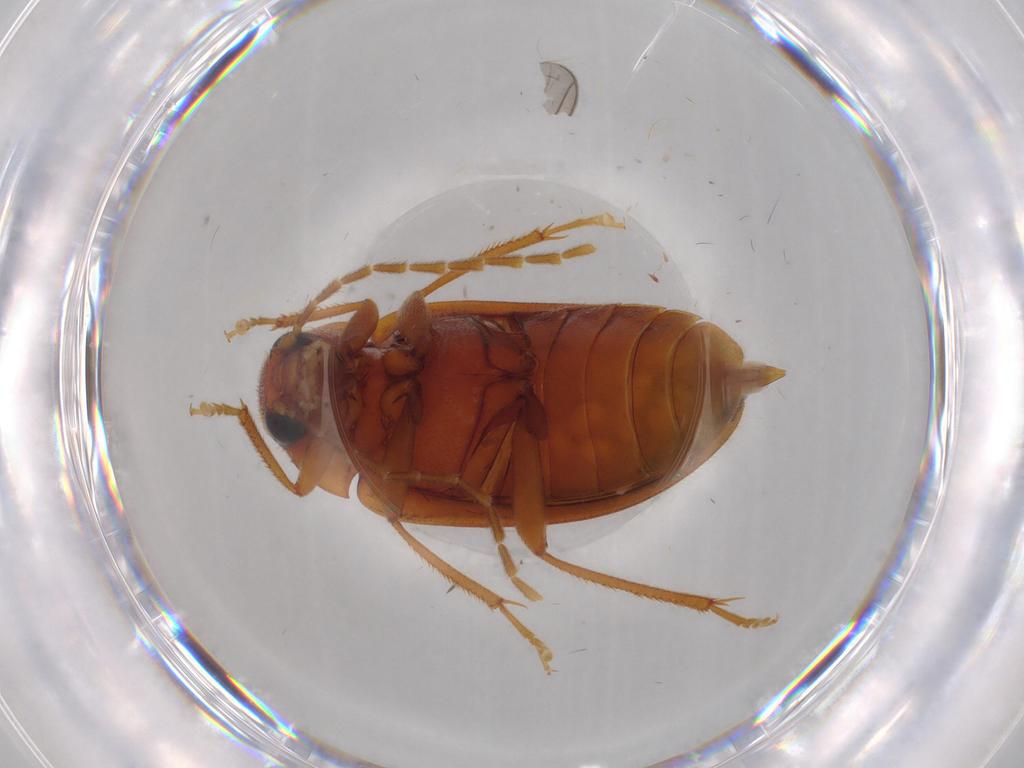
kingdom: Animalia
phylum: Arthropoda
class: Insecta
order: Coleoptera
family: Ptilodactylidae
